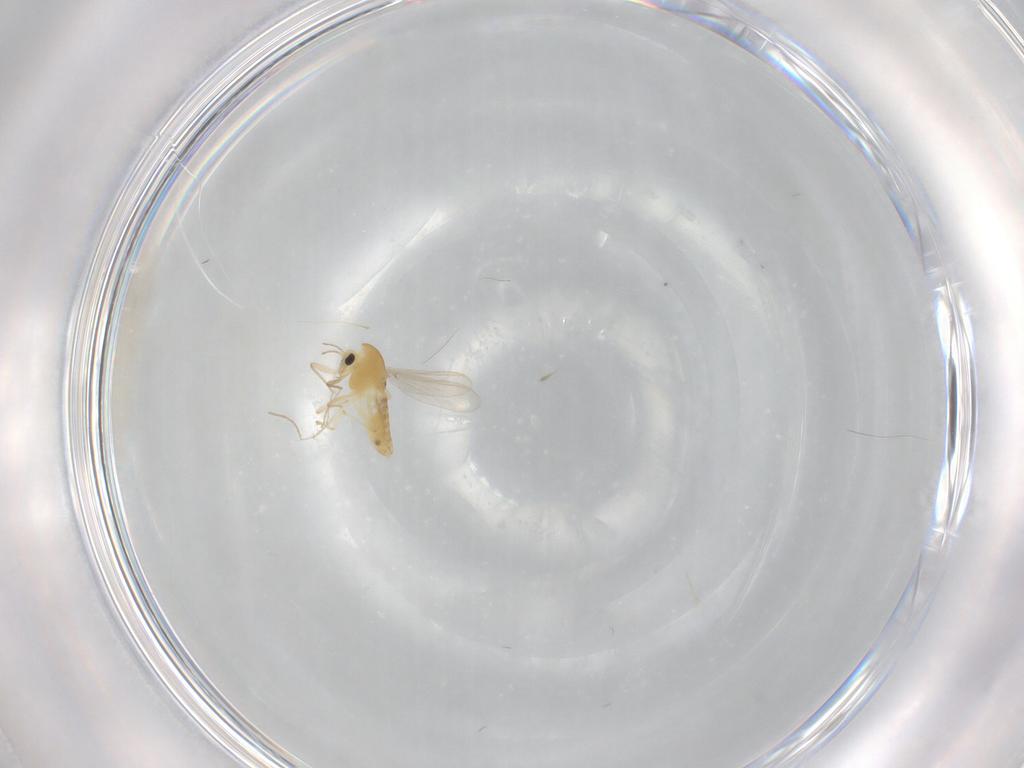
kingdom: Animalia
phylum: Arthropoda
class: Insecta
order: Diptera
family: Chironomidae
